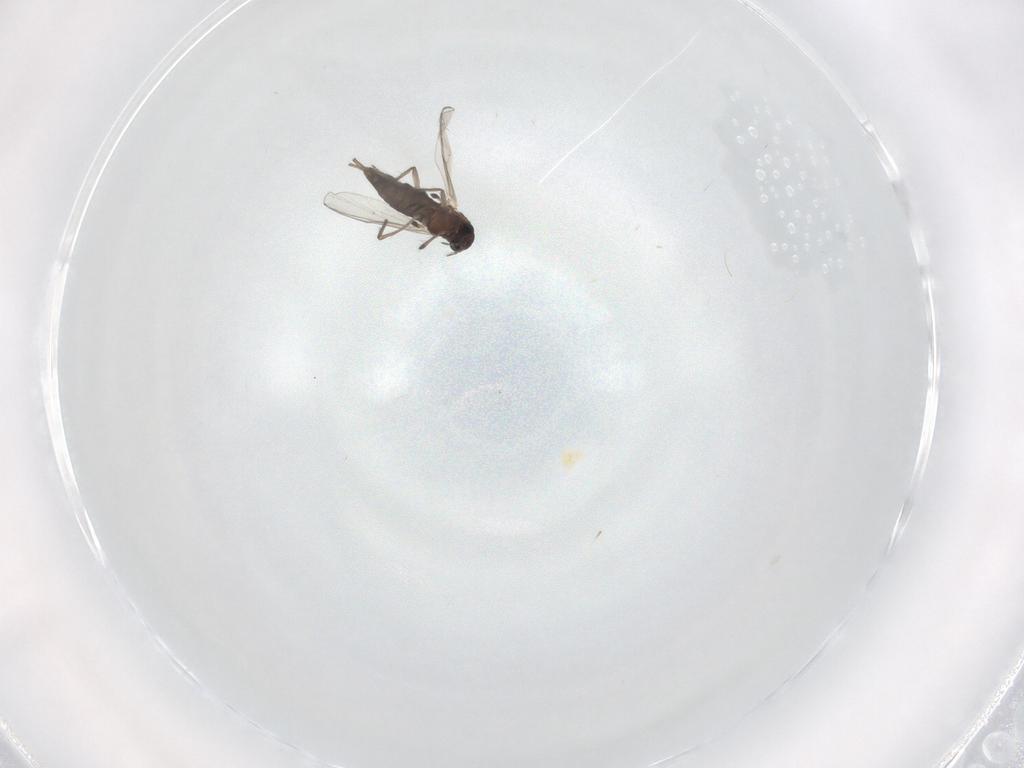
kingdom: Animalia
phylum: Arthropoda
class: Insecta
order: Diptera
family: Chironomidae
